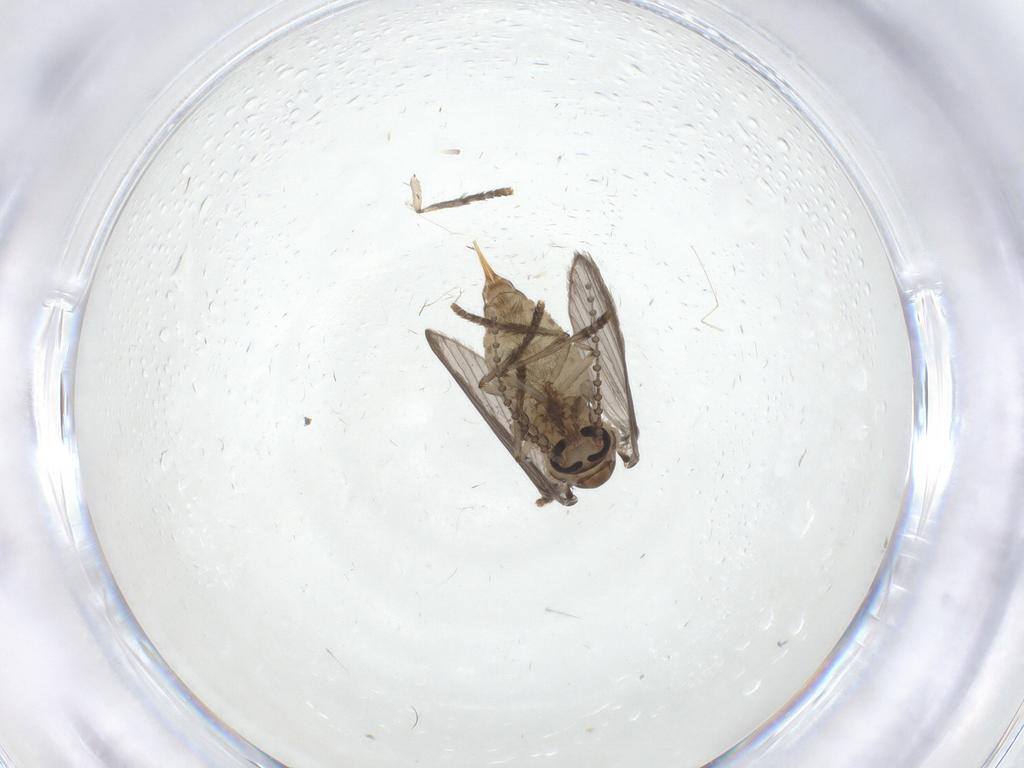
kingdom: Animalia
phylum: Arthropoda
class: Insecta
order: Diptera
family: Psychodidae
